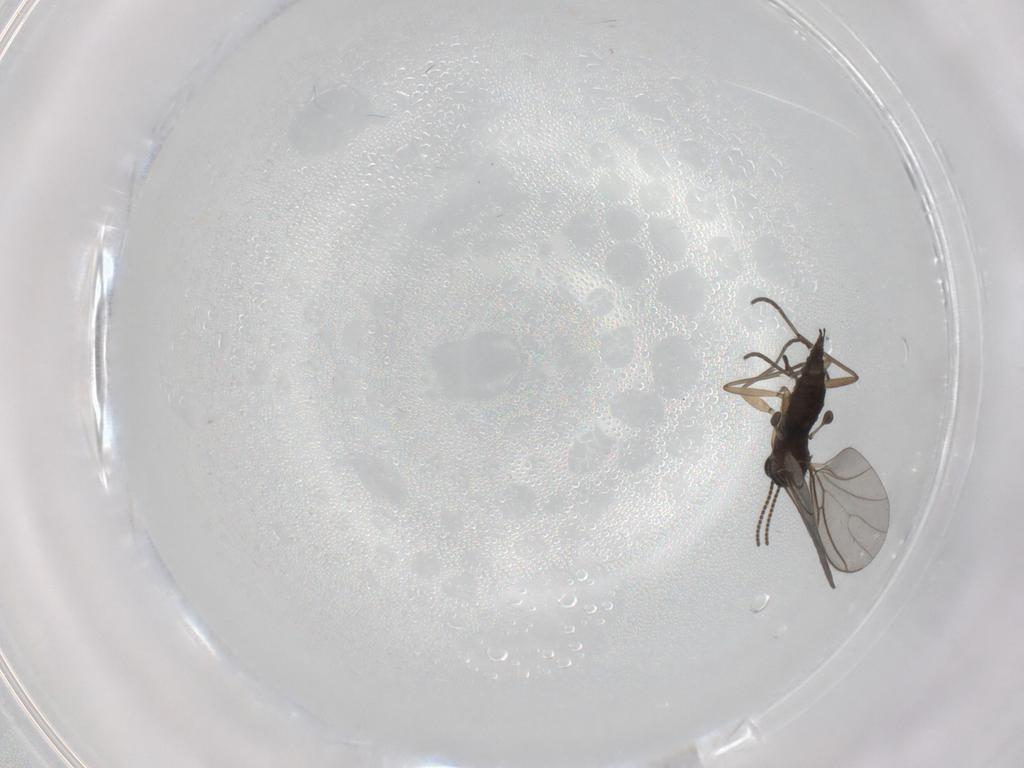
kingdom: Animalia
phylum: Arthropoda
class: Insecta
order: Diptera
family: Sciaridae
